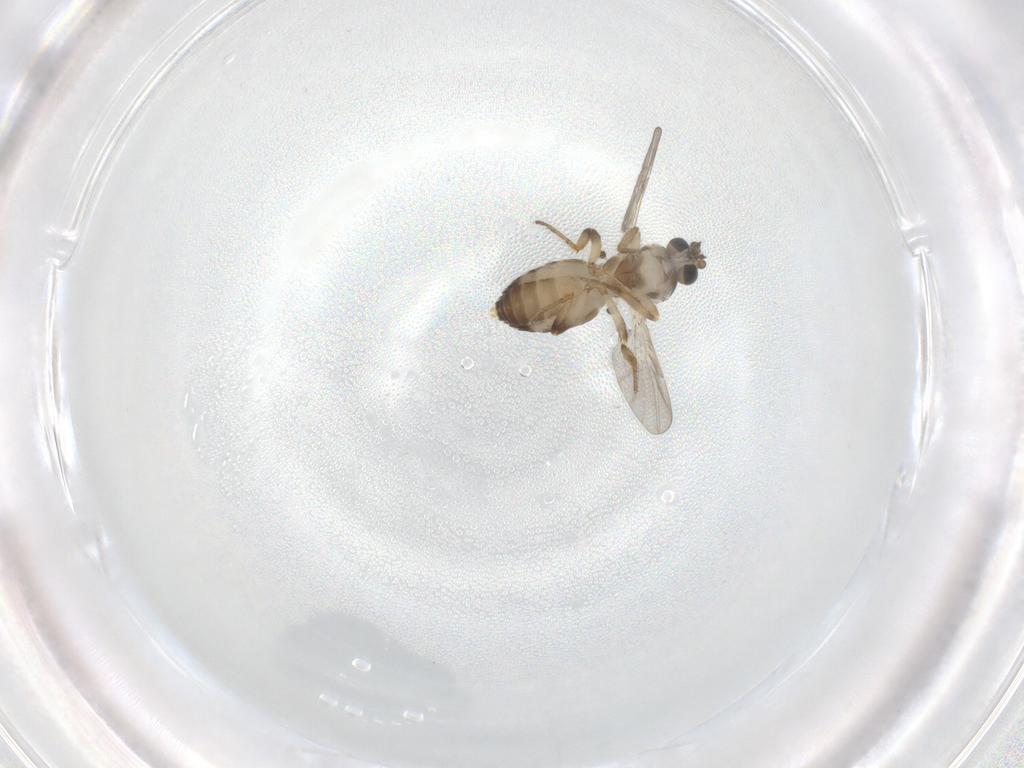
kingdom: Animalia
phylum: Arthropoda
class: Insecta
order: Diptera
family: Ceratopogonidae
